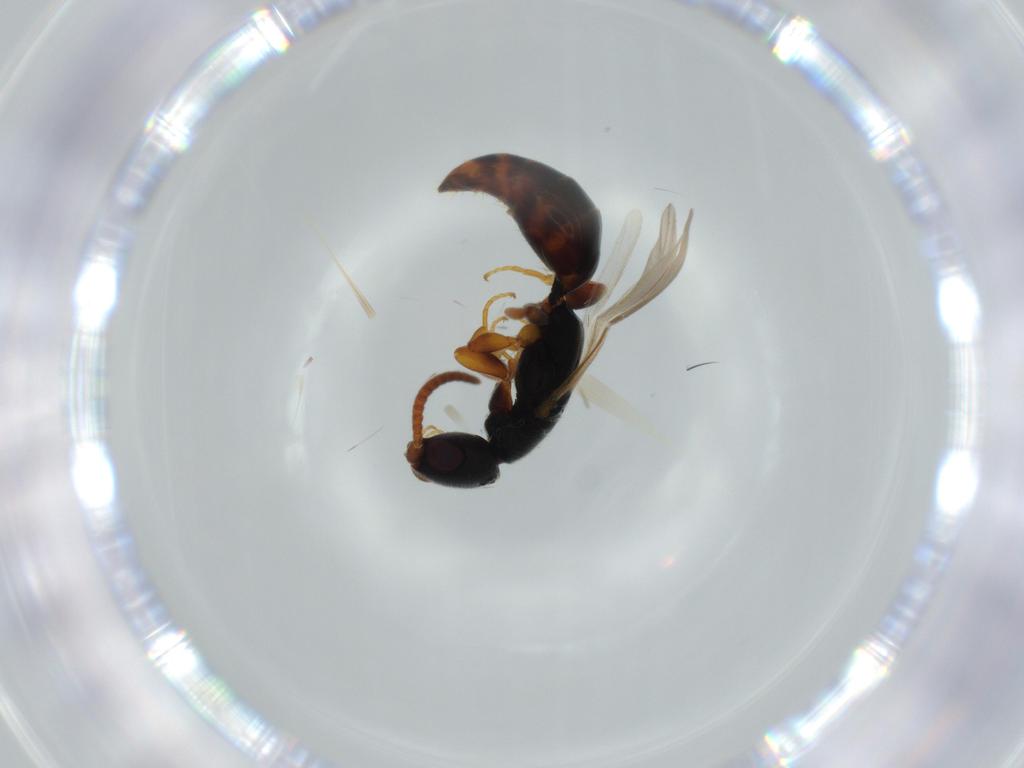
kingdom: Animalia
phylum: Arthropoda
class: Insecta
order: Hymenoptera
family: Bethylidae
